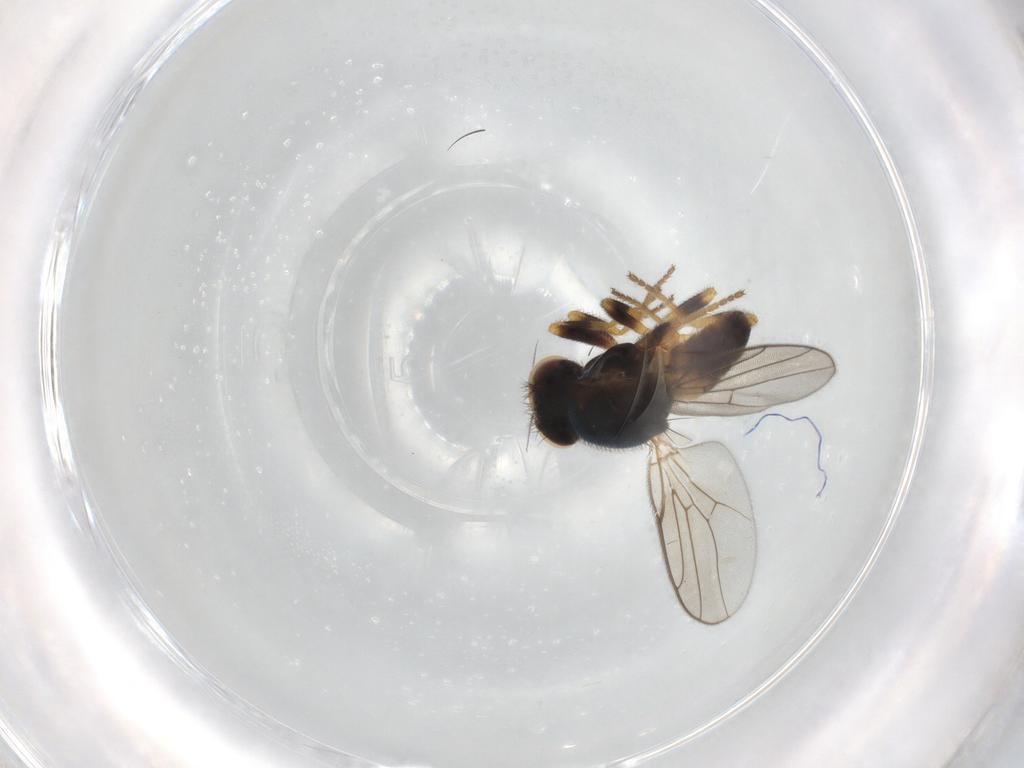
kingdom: Animalia
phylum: Arthropoda
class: Insecta
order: Diptera
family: Chloropidae
